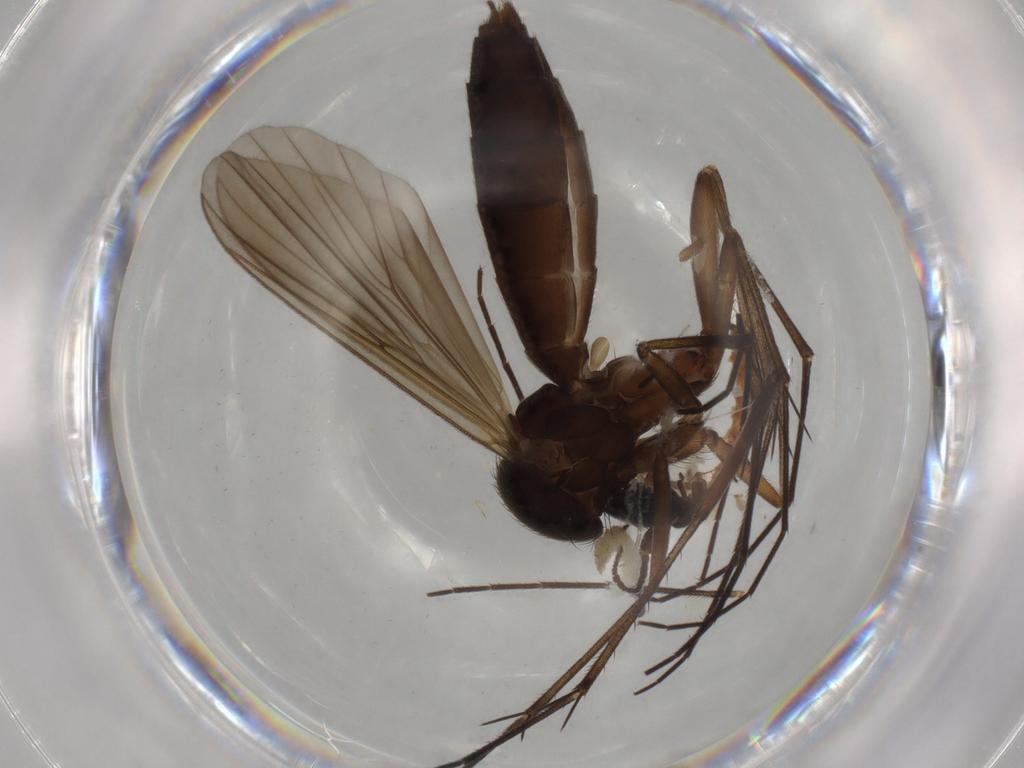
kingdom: Animalia
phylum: Arthropoda
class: Insecta
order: Diptera
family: Mycetophilidae
